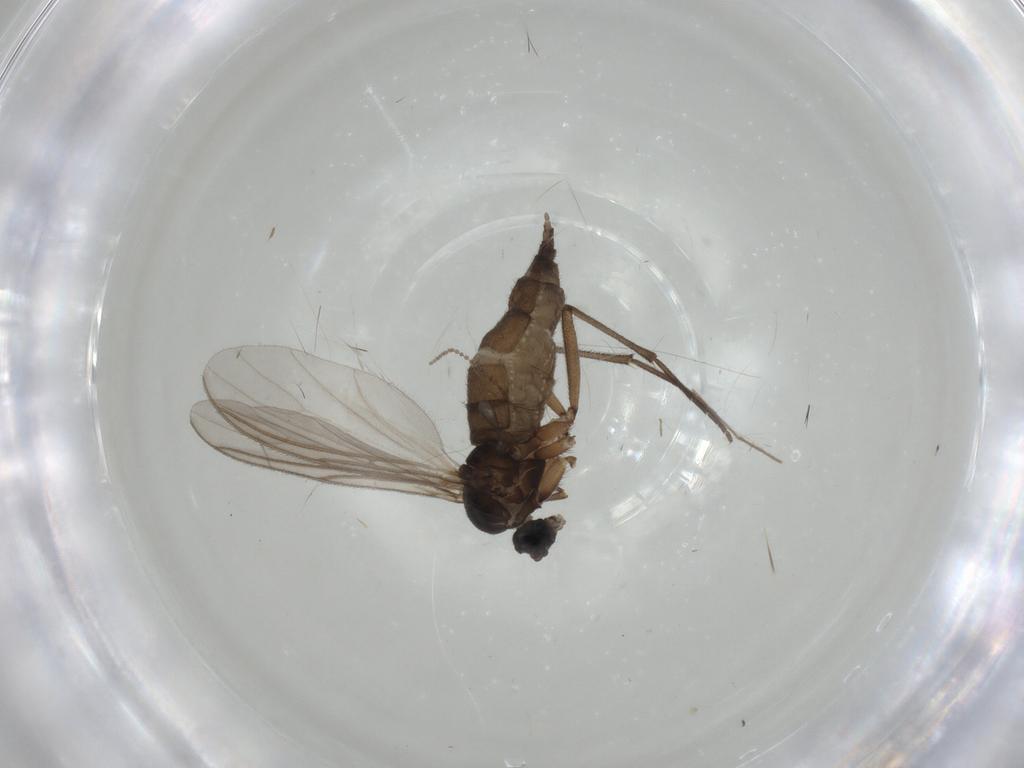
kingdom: Animalia
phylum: Arthropoda
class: Insecta
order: Diptera
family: Sciaridae
